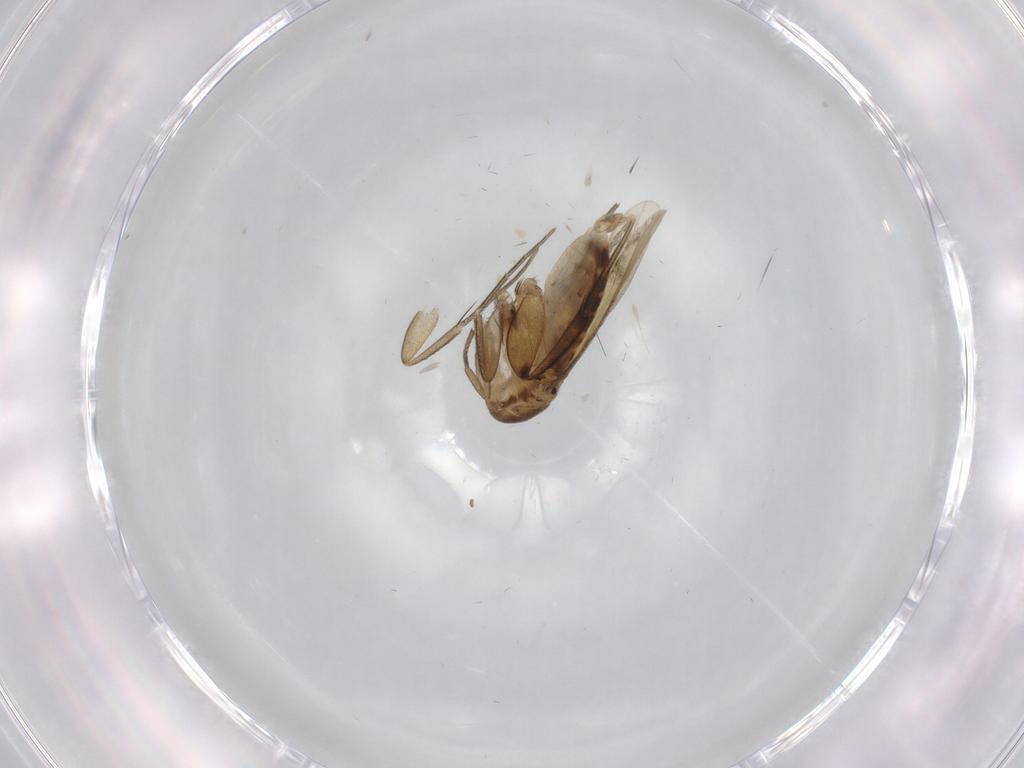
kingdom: Animalia
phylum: Arthropoda
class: Insecta
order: Diptera
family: Phoridae
